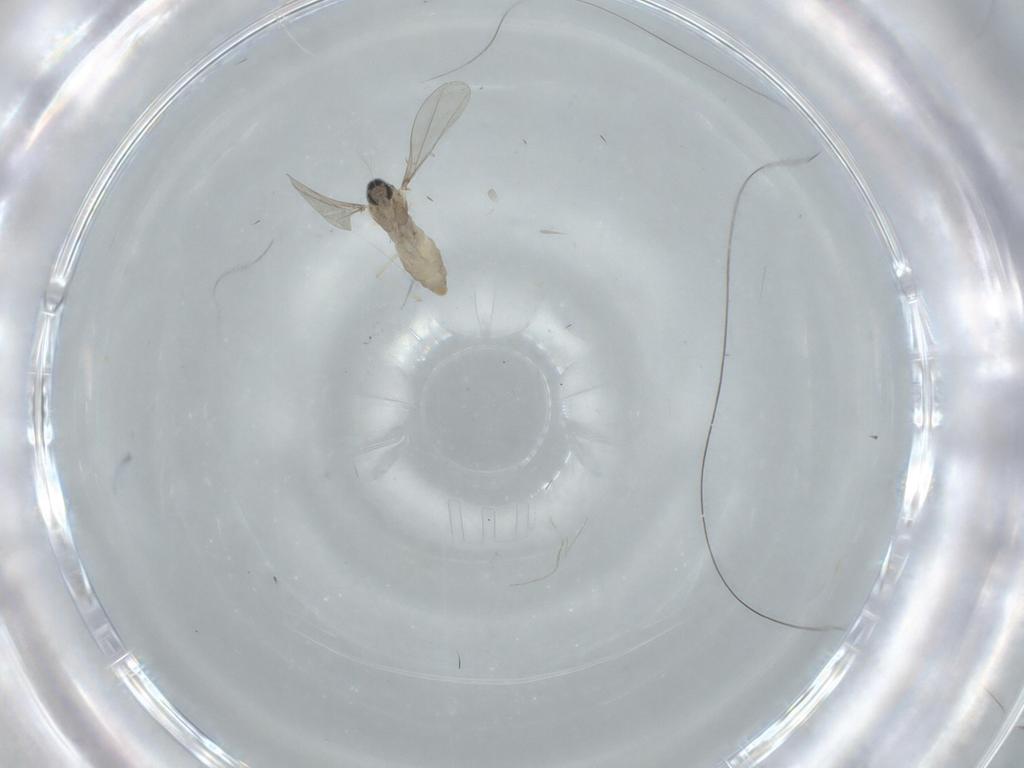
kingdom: Animalia
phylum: Arthropoda
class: Insecta
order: Diptera
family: Cecidomyiidae
